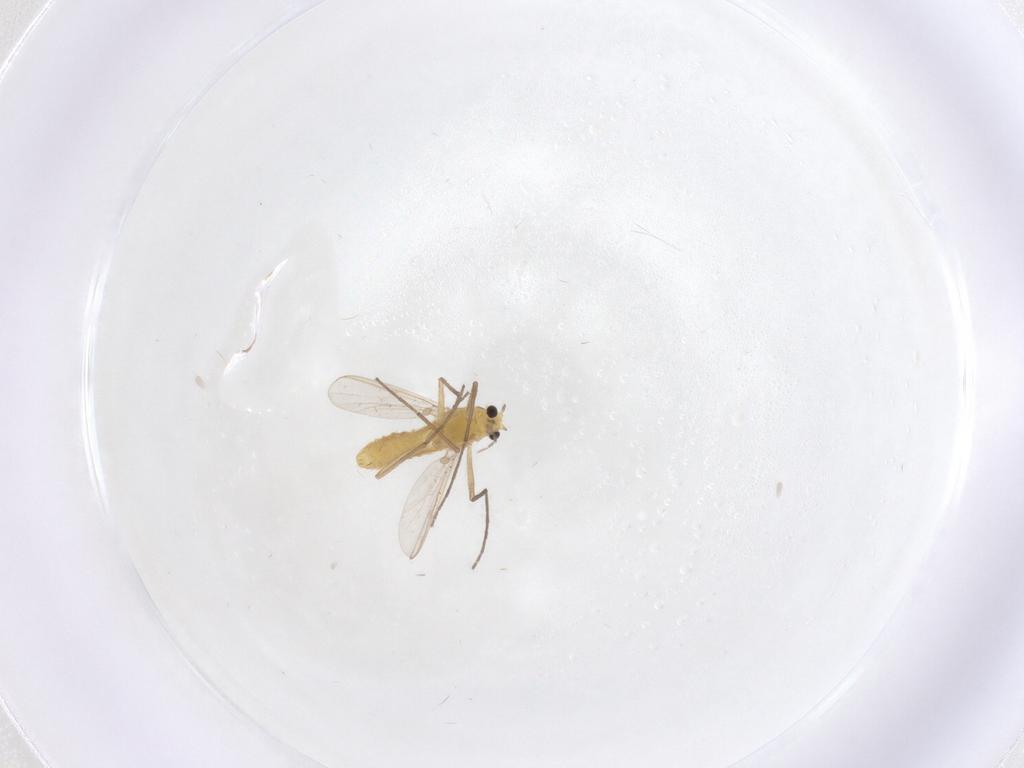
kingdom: Animalia
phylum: Arthropoda
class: Insecta
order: Diptera
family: Chironomidae
